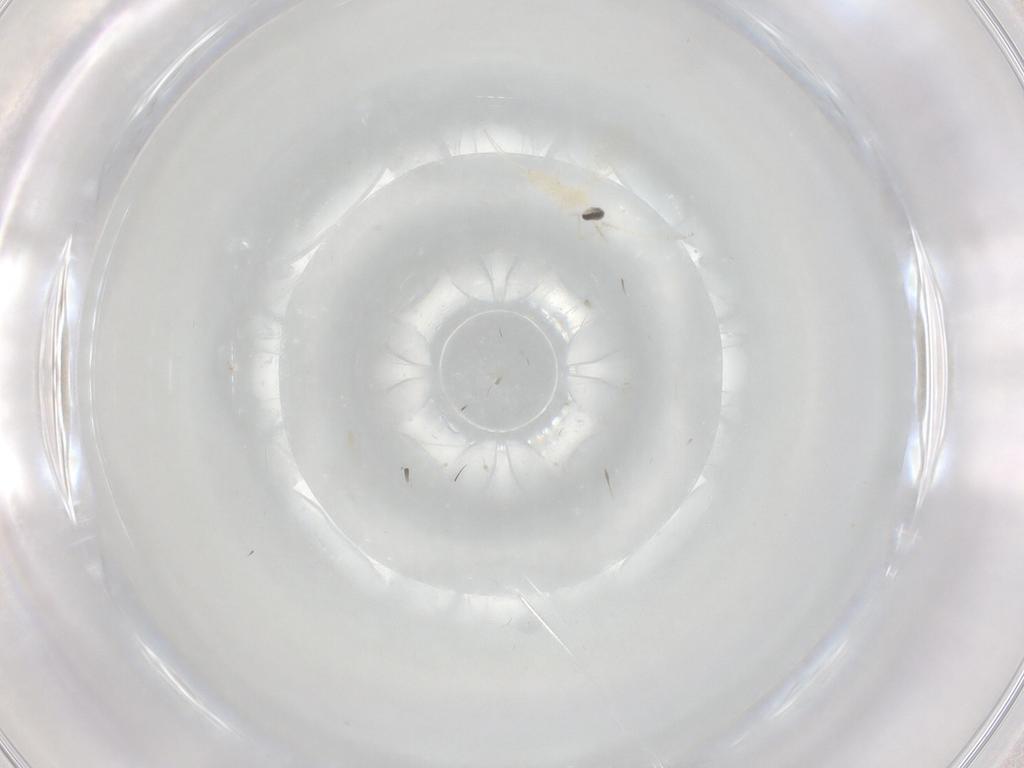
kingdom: Animalia
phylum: Arthropoda
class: Insecta
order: Diptera
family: Cecidomyiidae
